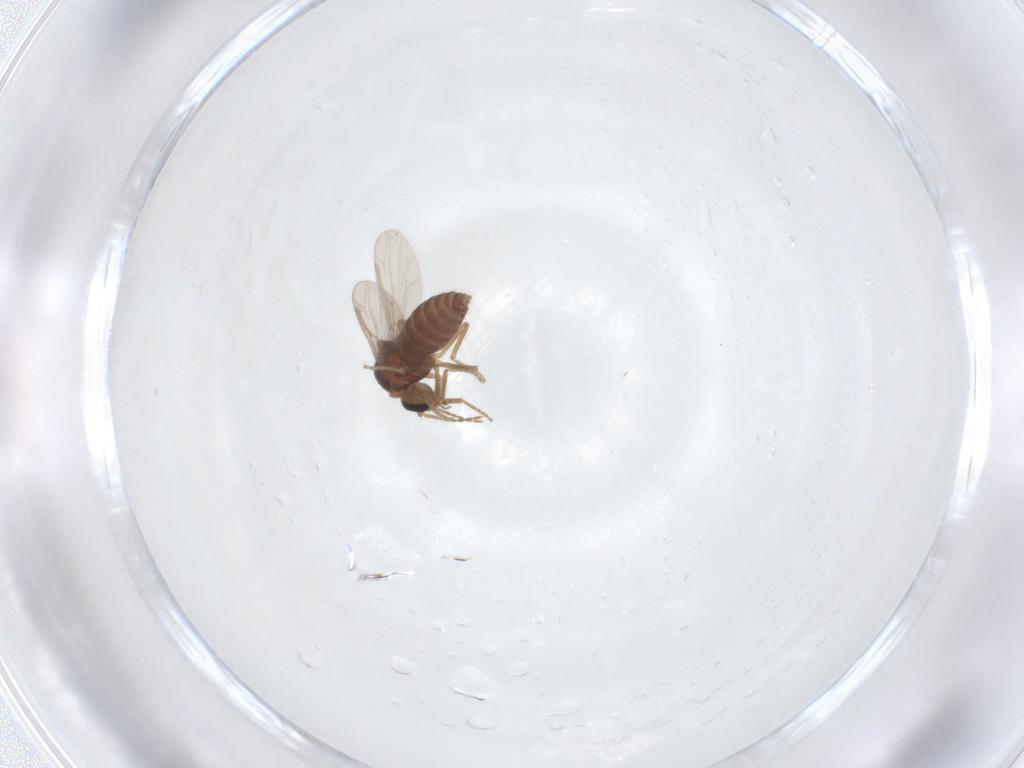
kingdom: Animalia
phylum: Arthropoda
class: Insecta
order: Diptera
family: Ceratopogonidae
